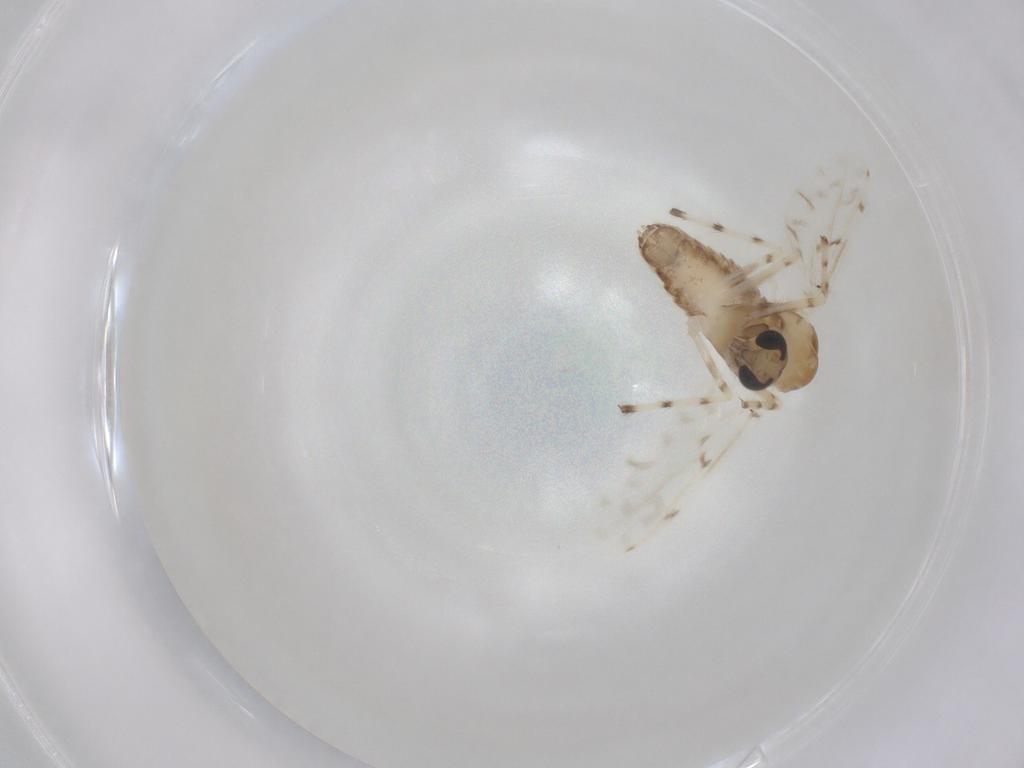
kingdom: Animalia
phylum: Arthropoda
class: Insecta
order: Diptera
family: Chironomidae
